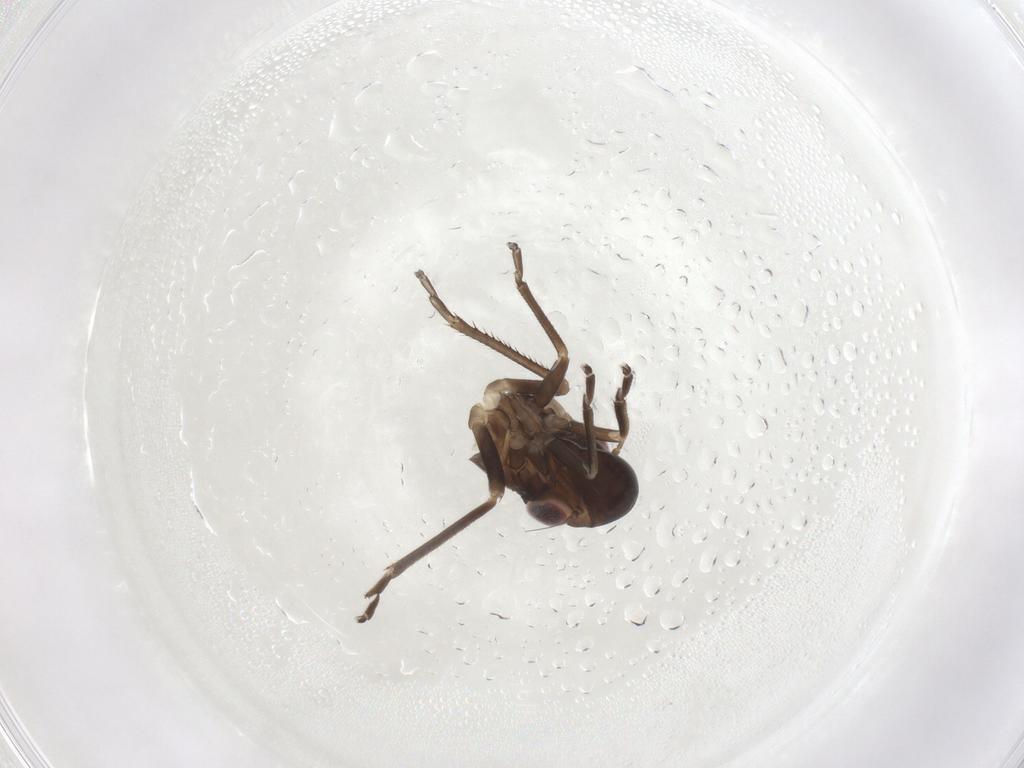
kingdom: Animalia
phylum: Arthropoda
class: Insecta
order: Hemiptera
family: Cicadellidae
